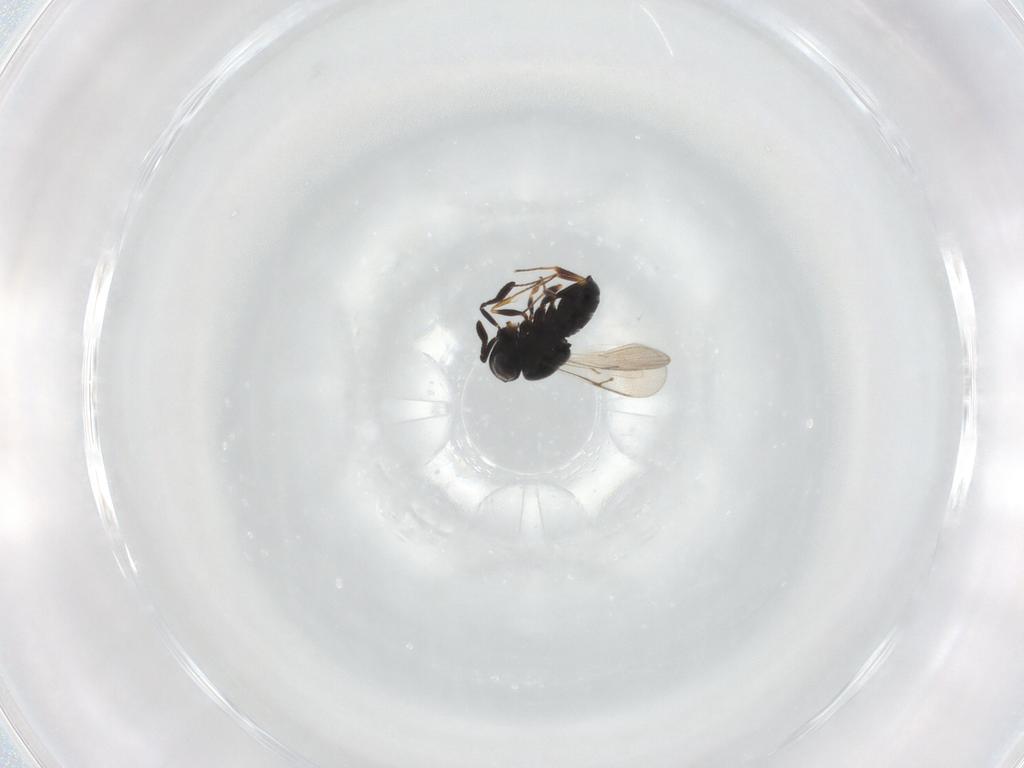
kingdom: Animalia
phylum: Arthropoda
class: Insecta
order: Hymenoptera
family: Scelionidae
